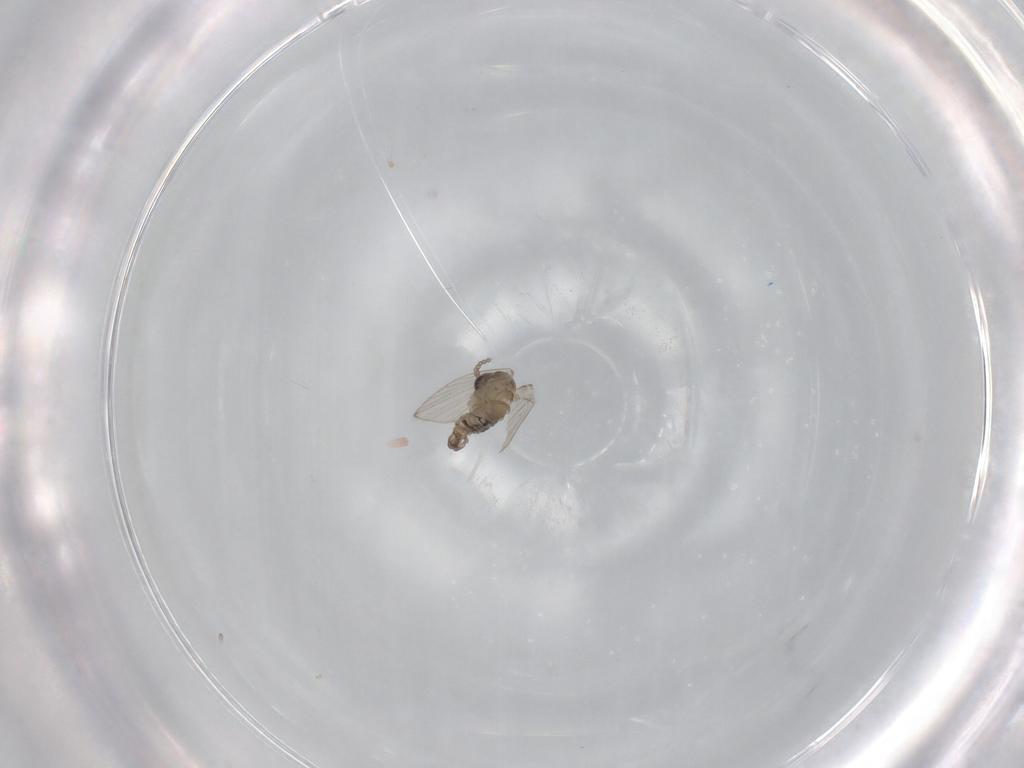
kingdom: Animalia
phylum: Arthropoda
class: Insecta
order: Diptera
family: Psychodidae
